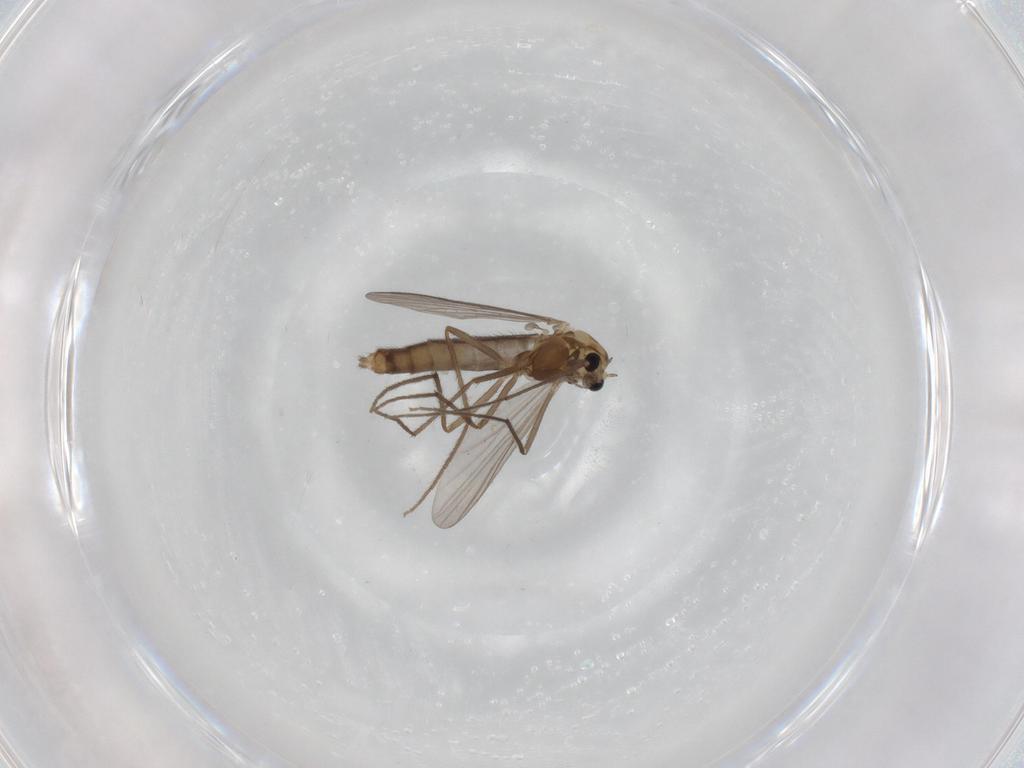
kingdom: Animalia
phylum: Arthropoda
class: Insecta
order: Diptera
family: Chironomidae
